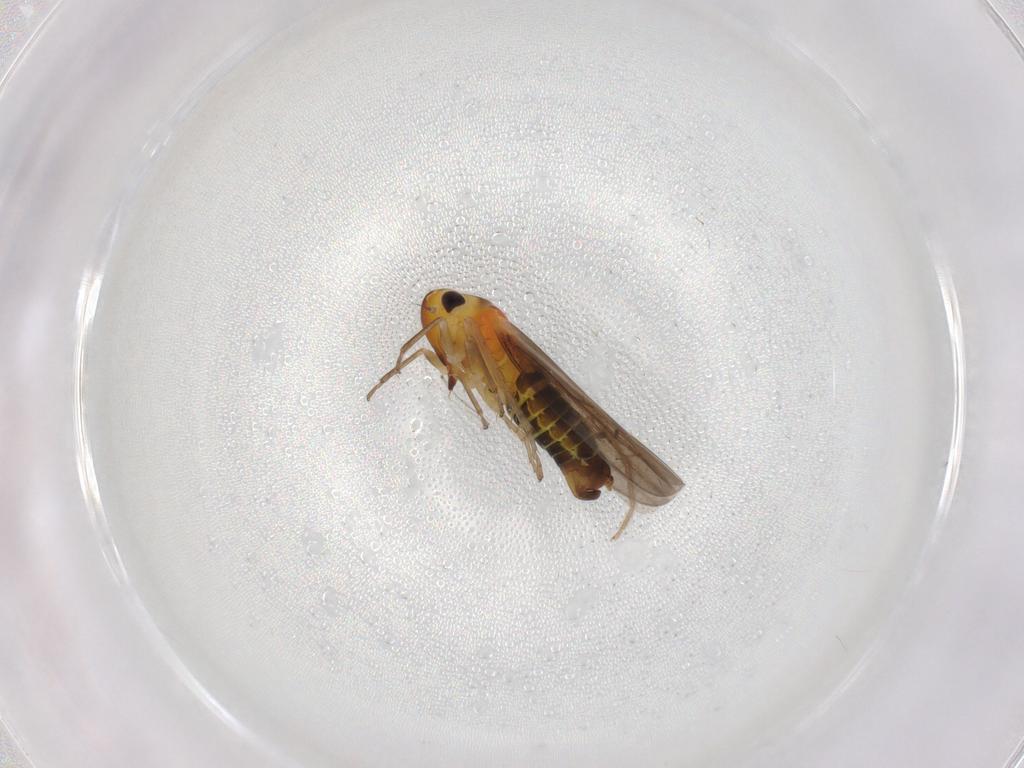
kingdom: Animalia
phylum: Arthropoda
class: Insecta
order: Hemiptera
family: Cicadellidae
